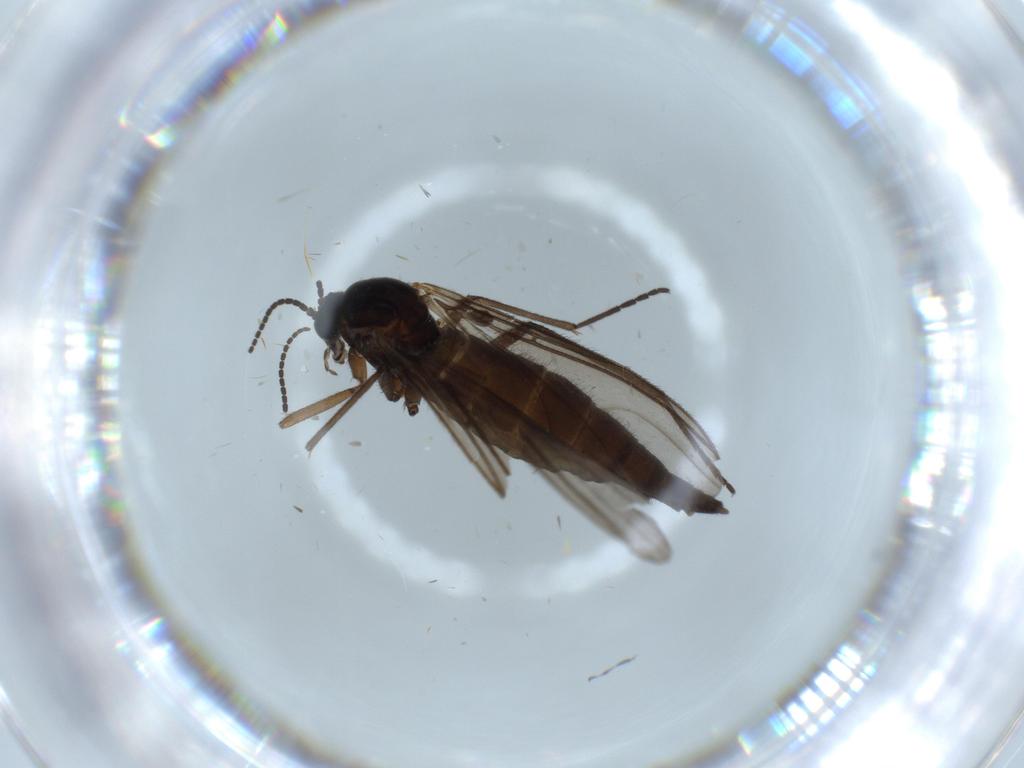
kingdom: Animalia
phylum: Arthropoda
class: Insecta
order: Diptera
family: Sciaridae
